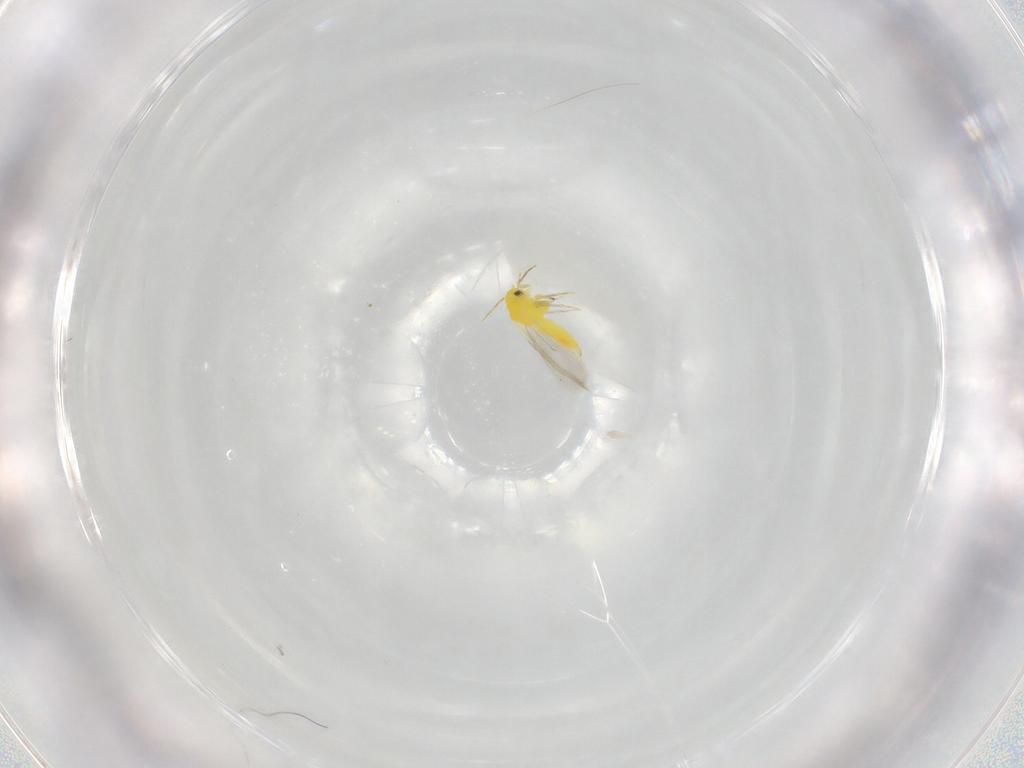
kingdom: Animalia
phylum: Arthropoda
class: Insecta
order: Hemiptera
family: Aleyrodidae
